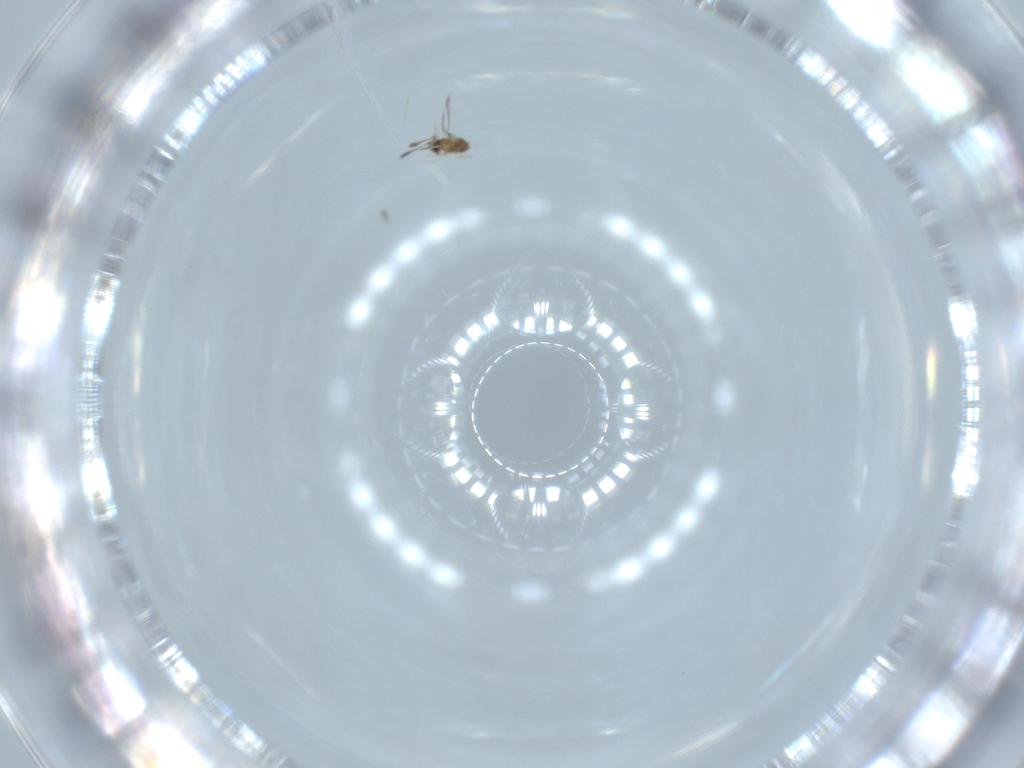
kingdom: Animalia
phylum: Arthropoda
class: Insecta
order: Hymenoptera
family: Mymaridae
